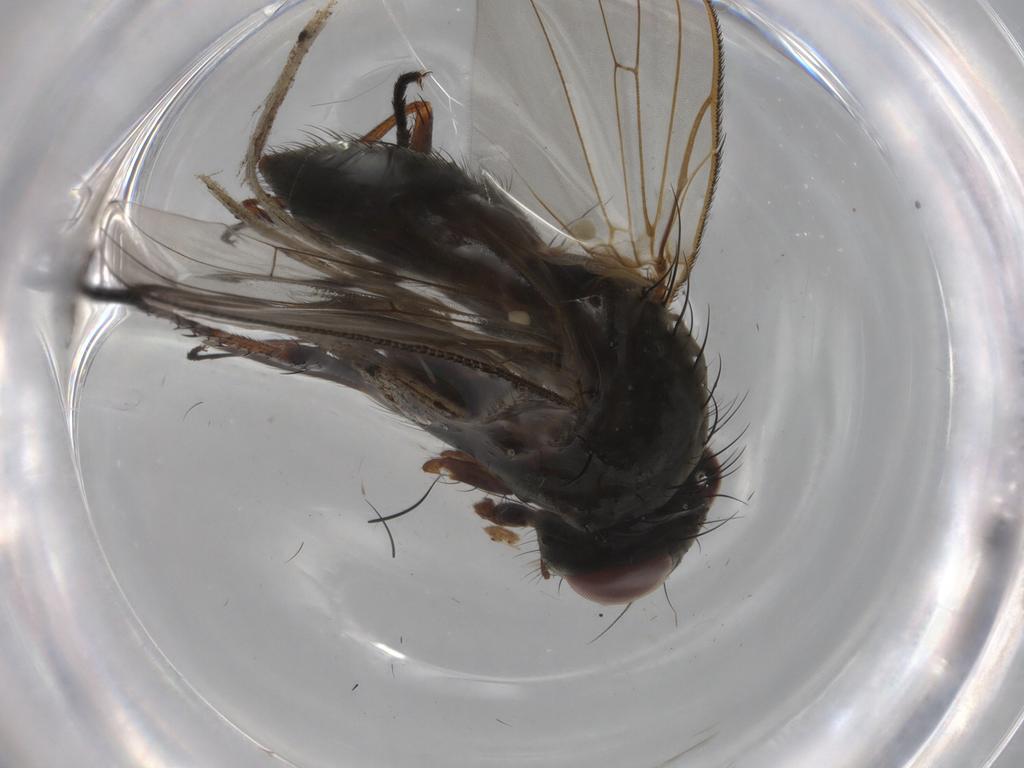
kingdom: Animalia
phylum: Arthropoda
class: Insecta
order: Diptera
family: Anthomyiidae
